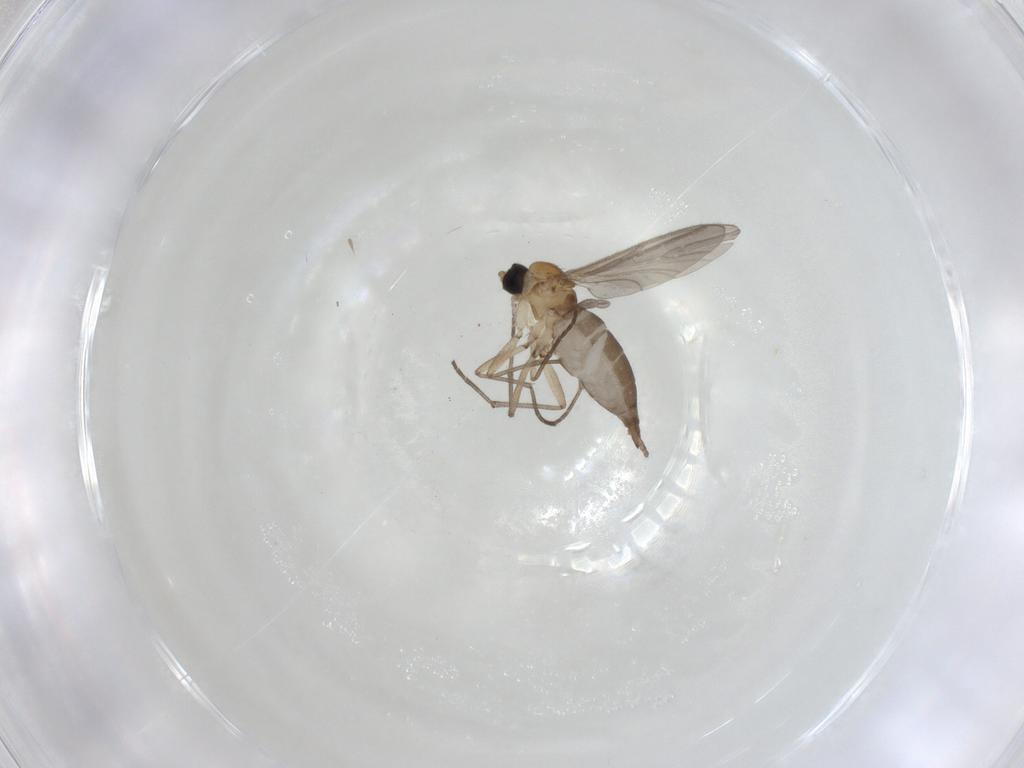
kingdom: Animalia
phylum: Arthropoda
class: Insecta
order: Diptera
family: Sciaridae
